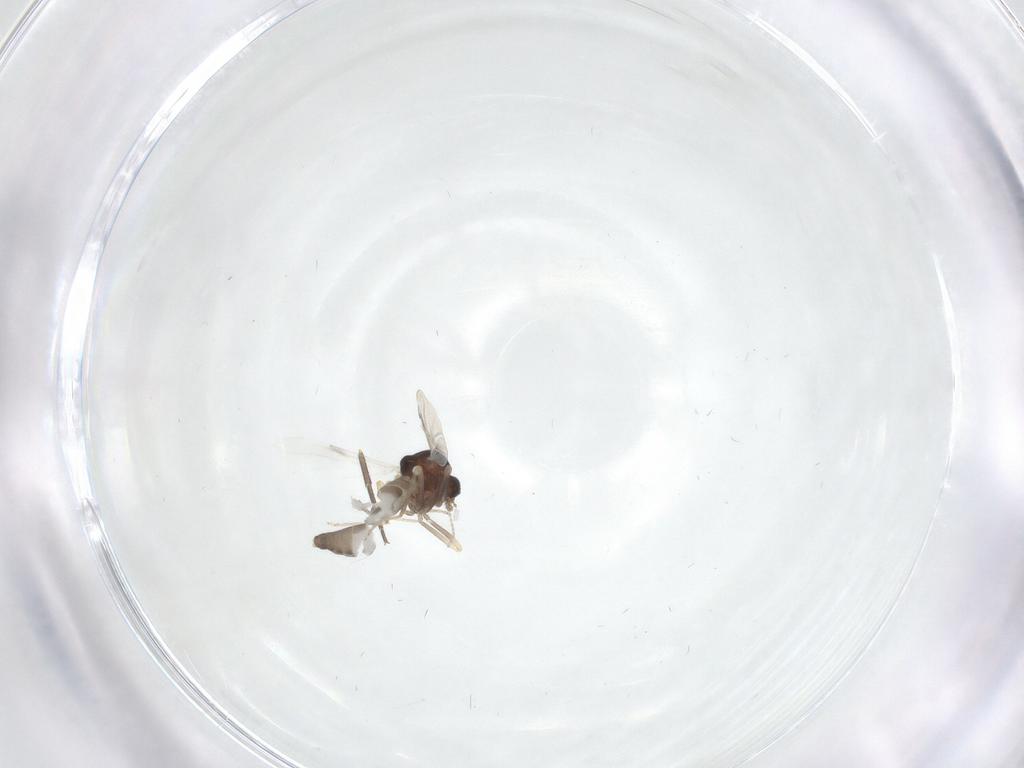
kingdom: Animalia
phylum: Arthropoda
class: Insecta
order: Diptera
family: Ceratopogonidae
